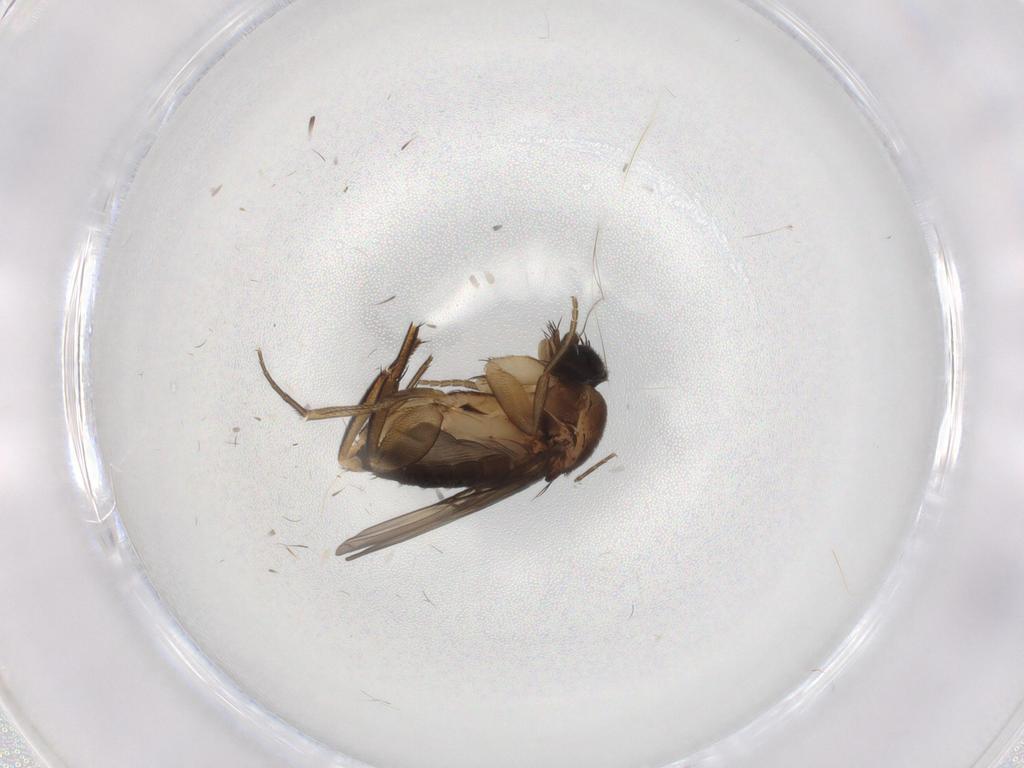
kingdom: Animalia
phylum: Arthropoda
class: Insecta
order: Diptera
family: Phoridae
